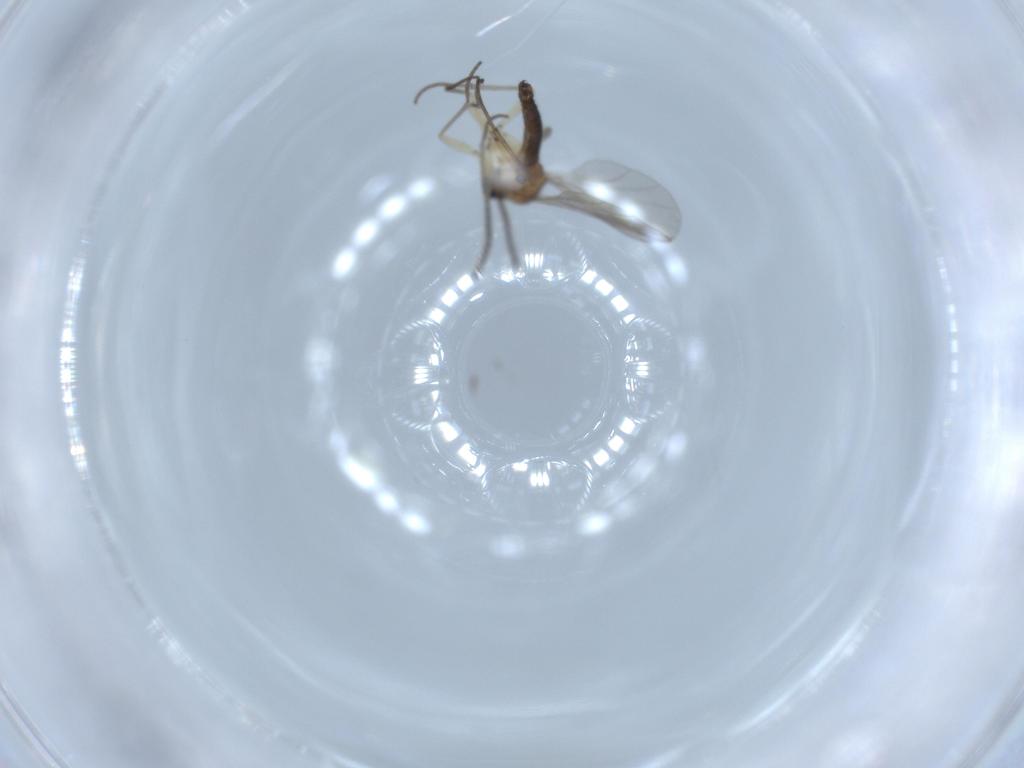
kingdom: Animalia
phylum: Arthropoda
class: Insecta
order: Diptera
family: Sciaridae
